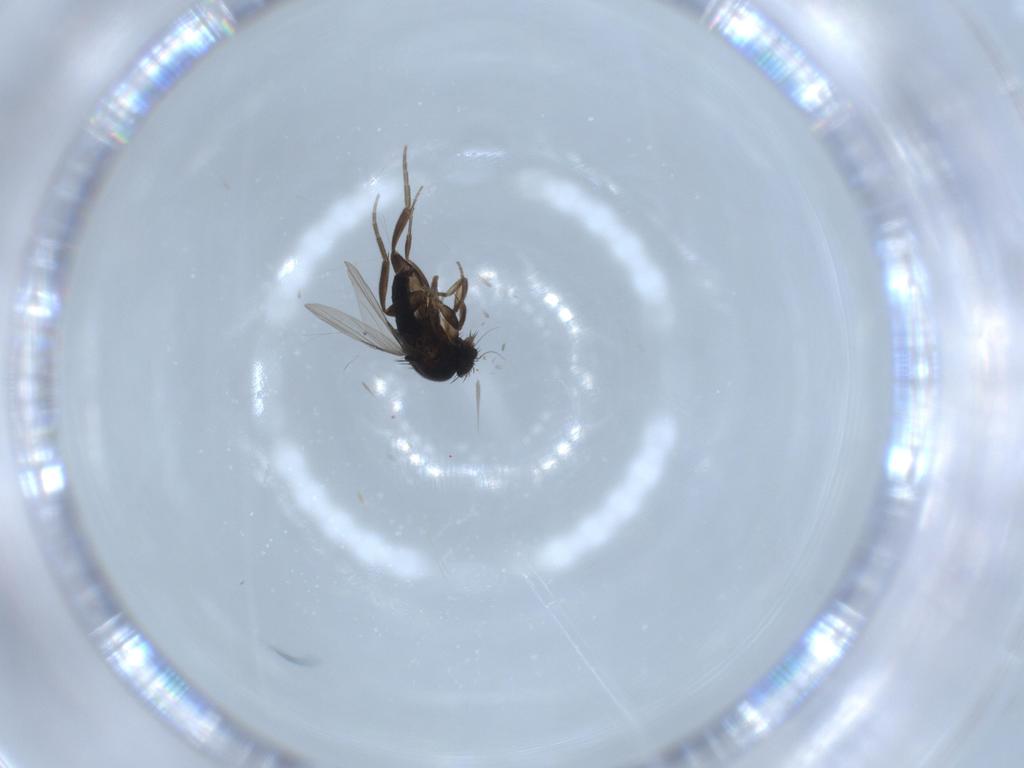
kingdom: Animalia
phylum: Arthropoda
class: Insecta
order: Diptera
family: Phoridae
